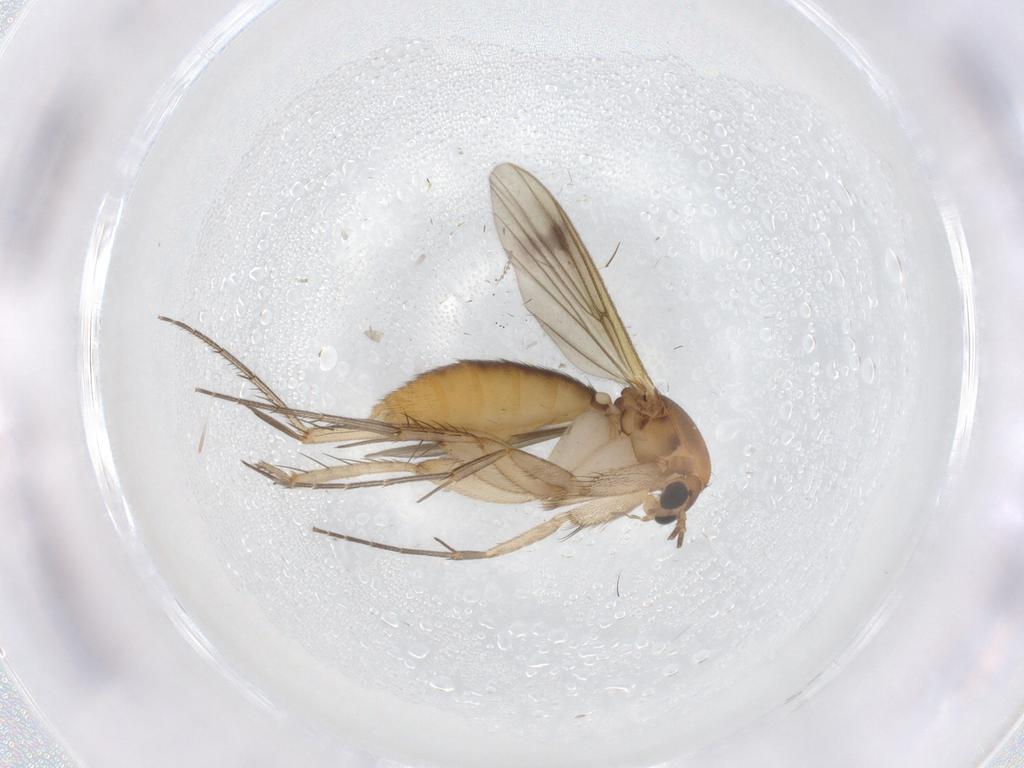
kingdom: Animalia
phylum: Arthropoda
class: Insecta
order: Diptera
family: Mycetophilidae
